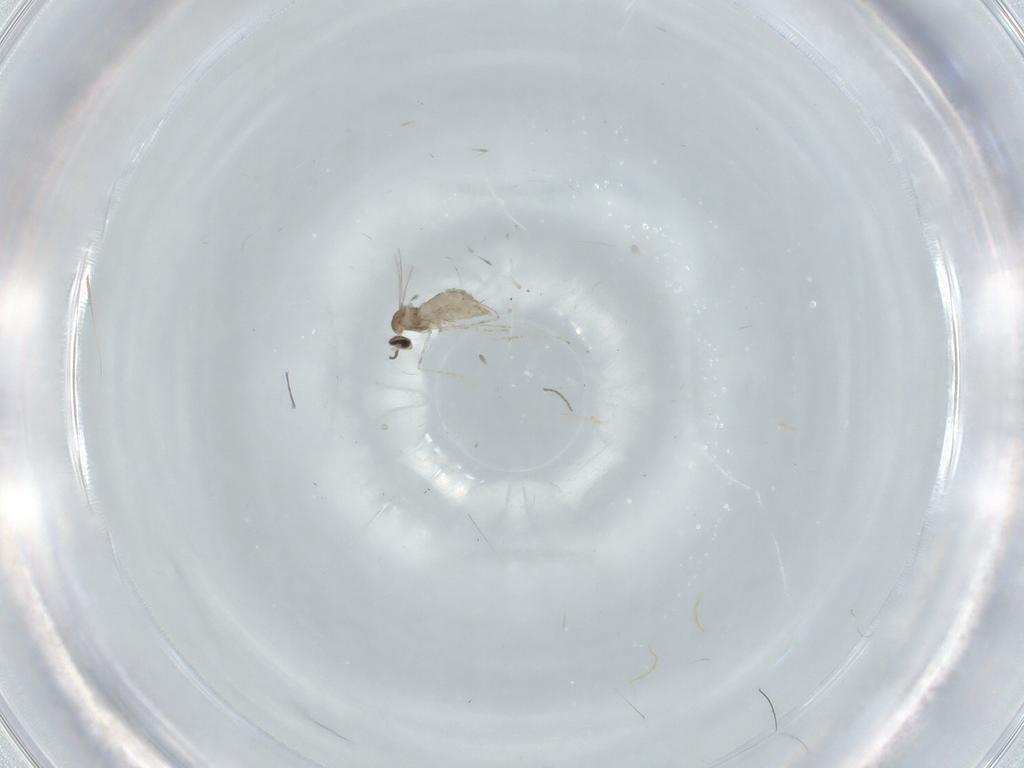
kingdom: Animalia
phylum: Arthropoda
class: Insecta
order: Diptera
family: Cecidomyiidae
